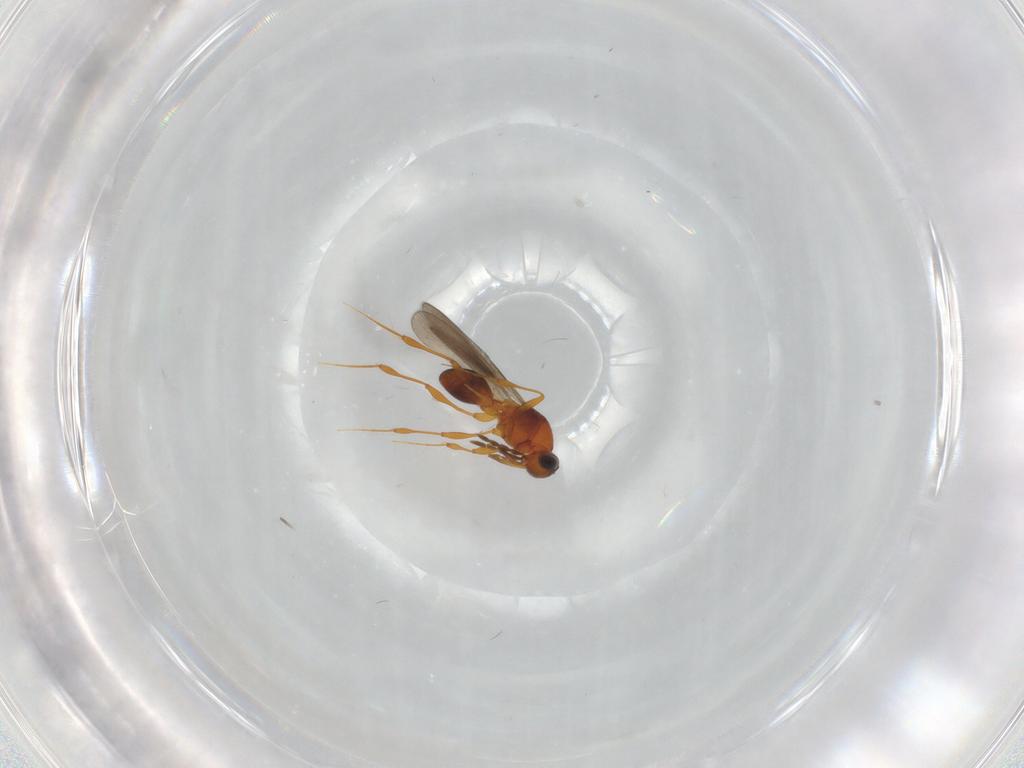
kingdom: Animalia
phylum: Arthropoda
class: Insecta
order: Hymenoptera
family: Platygastridae
